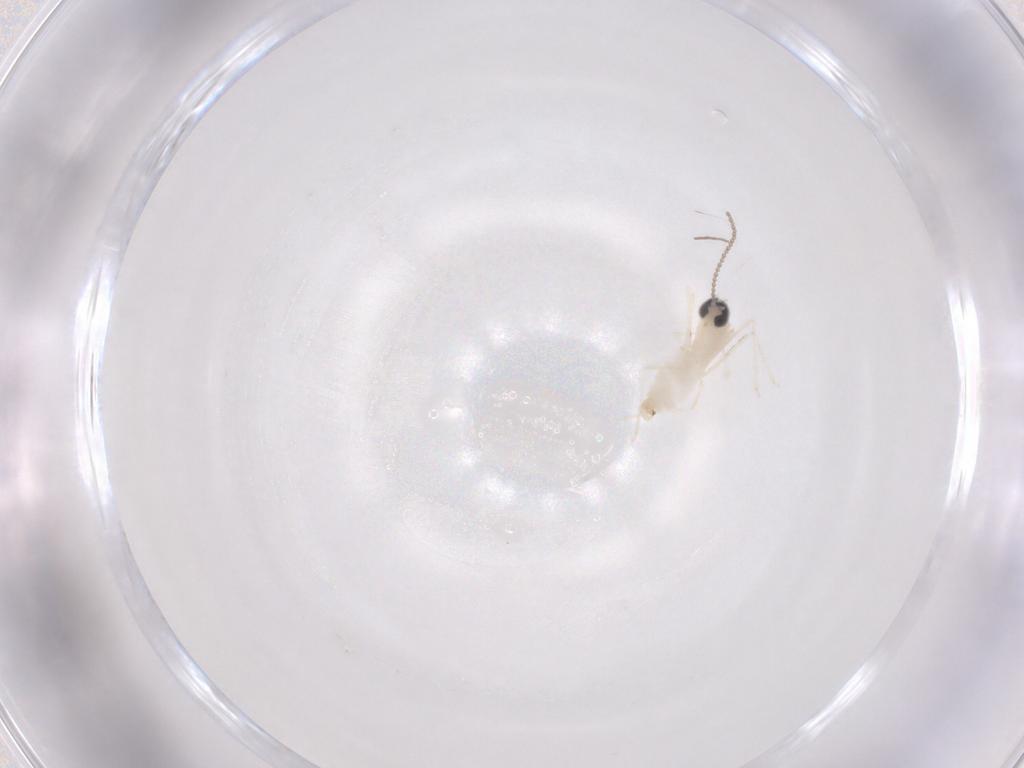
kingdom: Animalia
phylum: Arthropoda
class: Insecta
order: Diptera
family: Cecidomyiidae
